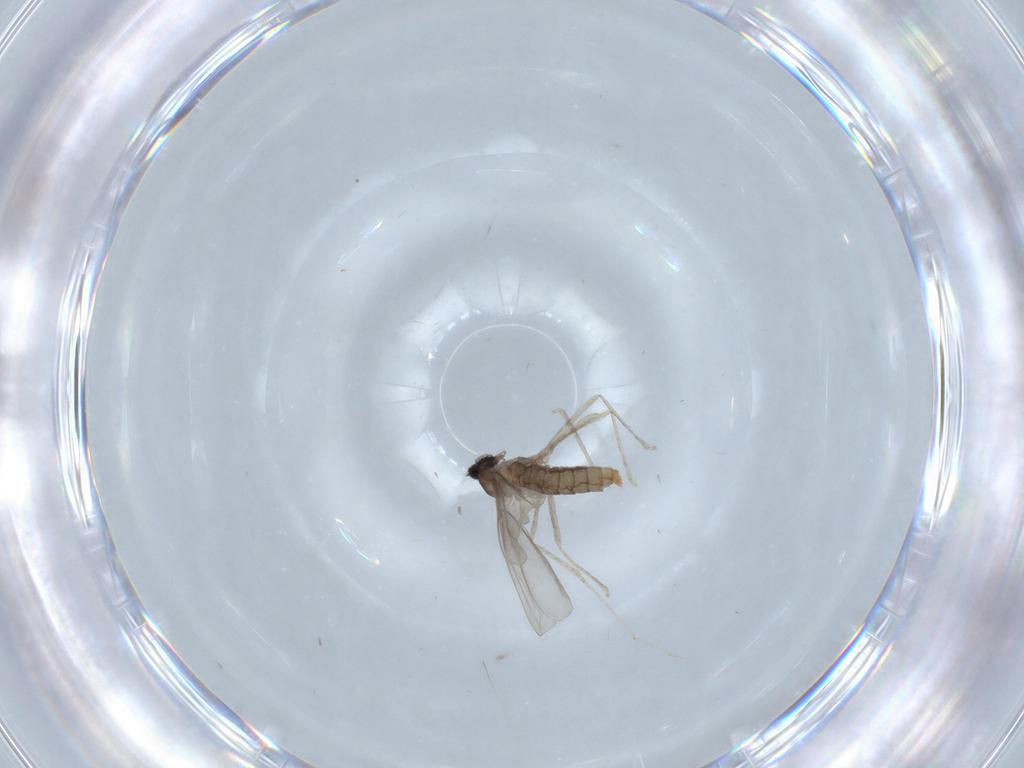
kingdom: Animalia
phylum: Arthropoda
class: Insecta
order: Diptera
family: Cecidomyiidae
